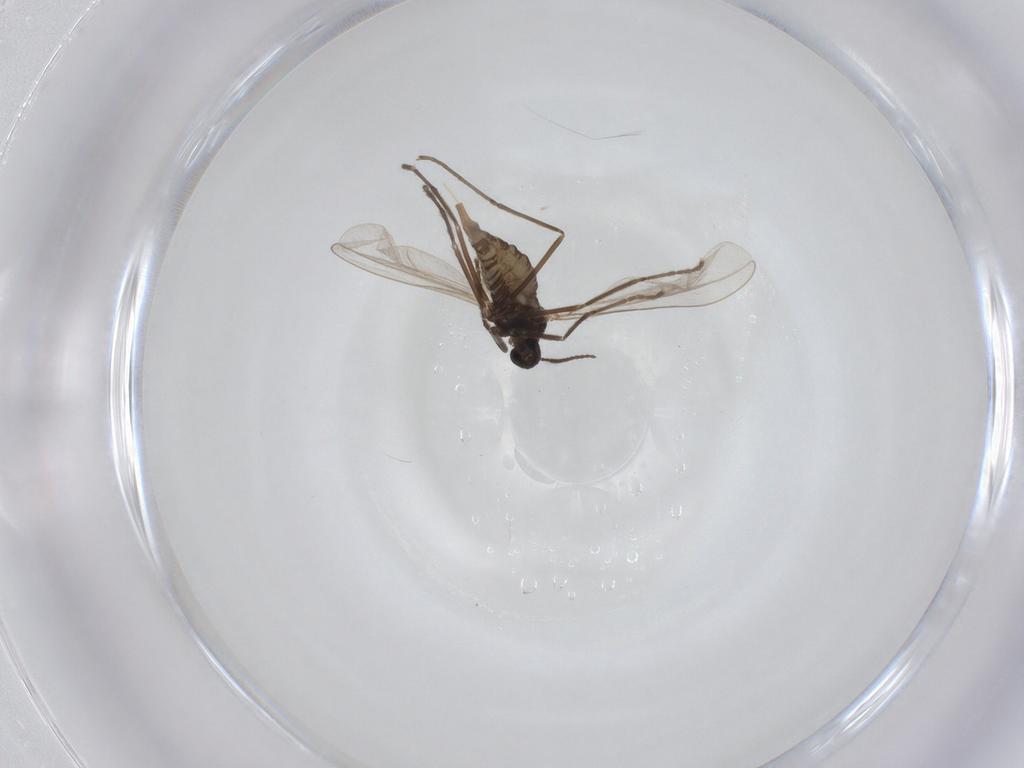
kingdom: Animalia
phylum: Arthropoda
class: Insecta
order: Diptera
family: Cecidomyiidae
